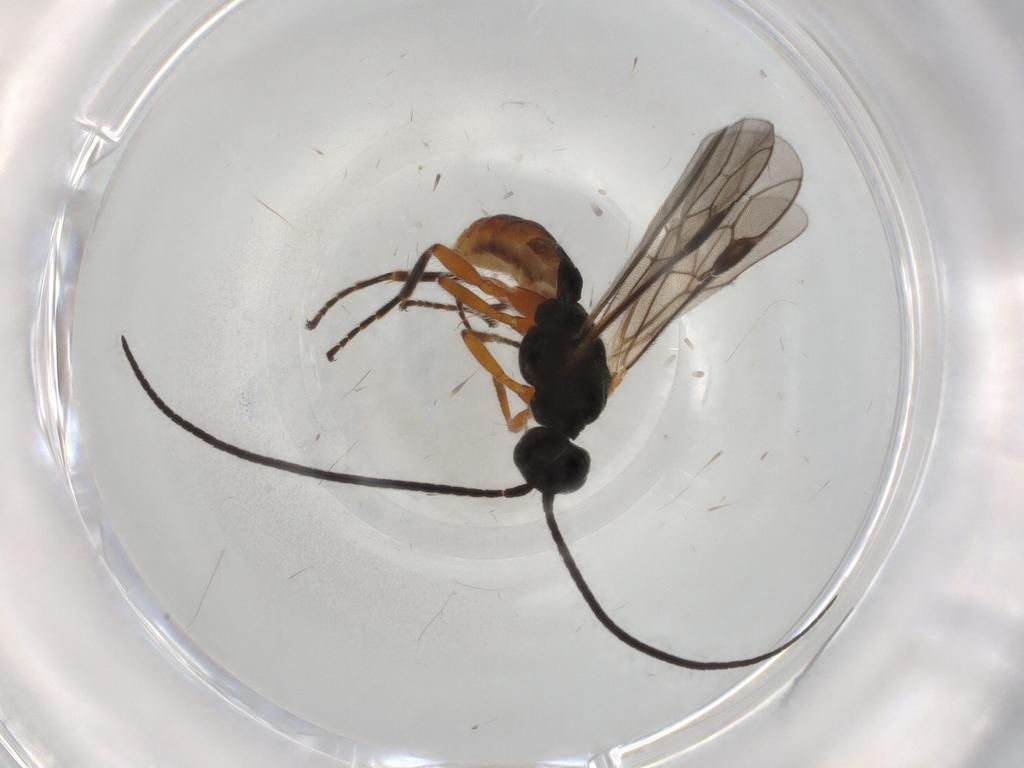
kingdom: Animalia
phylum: Arthropoda
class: Insecta
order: Hymenoptera
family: Braconidae
